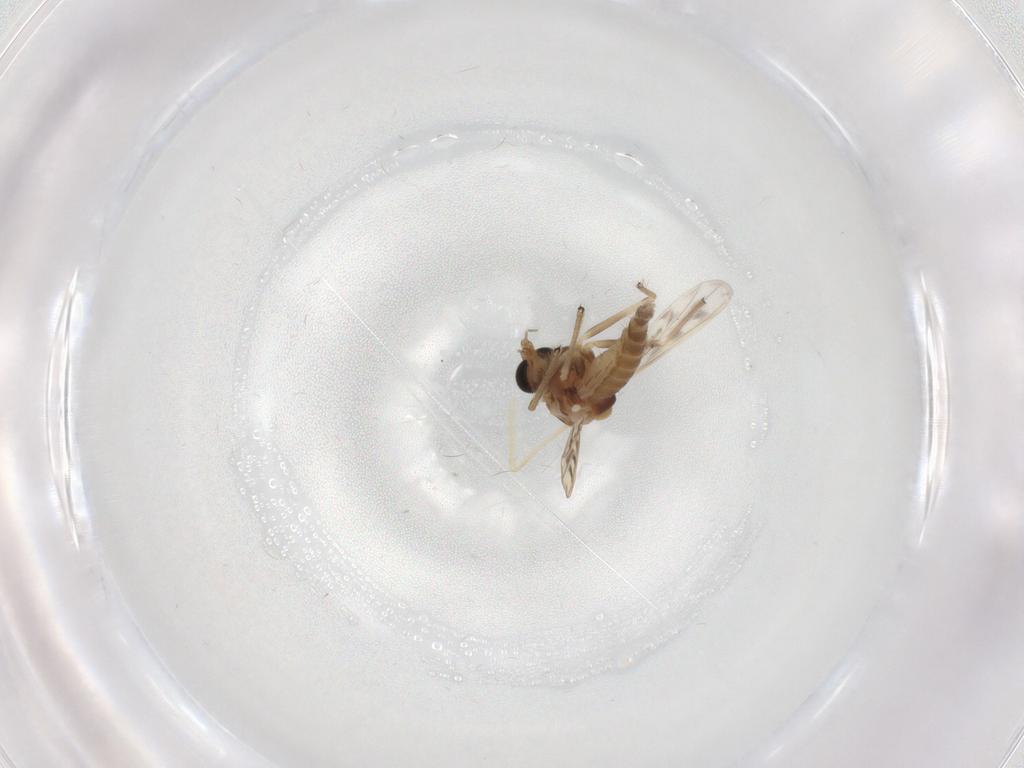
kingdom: Animalia
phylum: Arthropoda
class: Insecta
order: Diptera
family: Chironomidae
